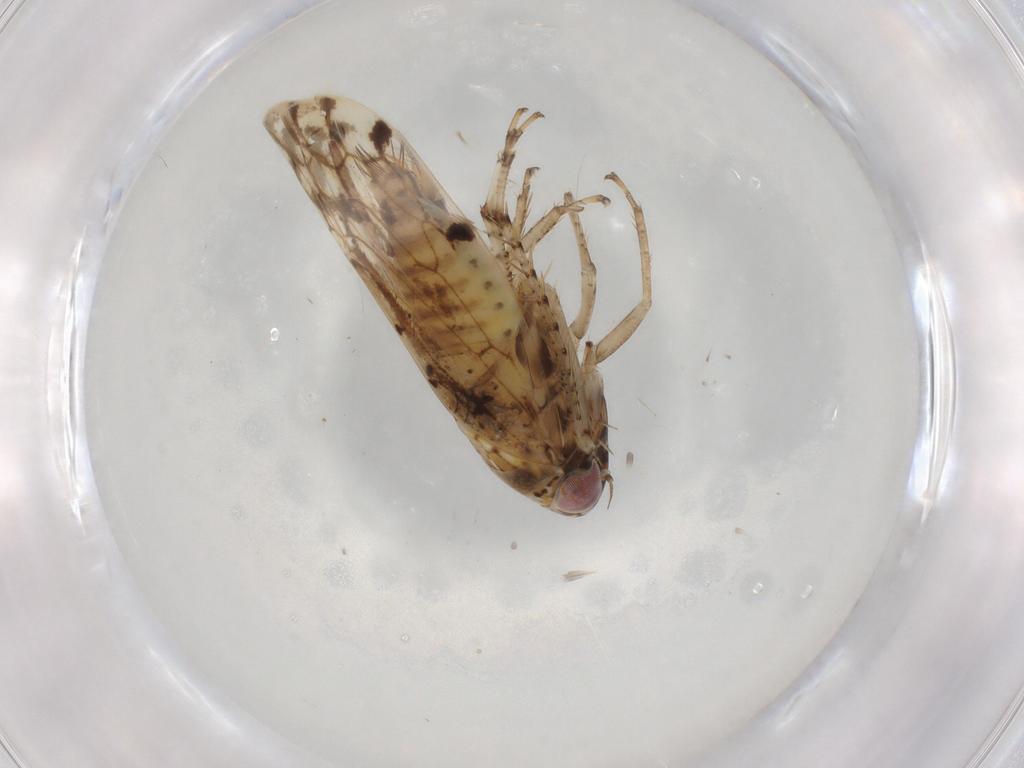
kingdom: Animalia
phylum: Arthropoda
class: Insecta
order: Hemiptera
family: Cicadellidae
